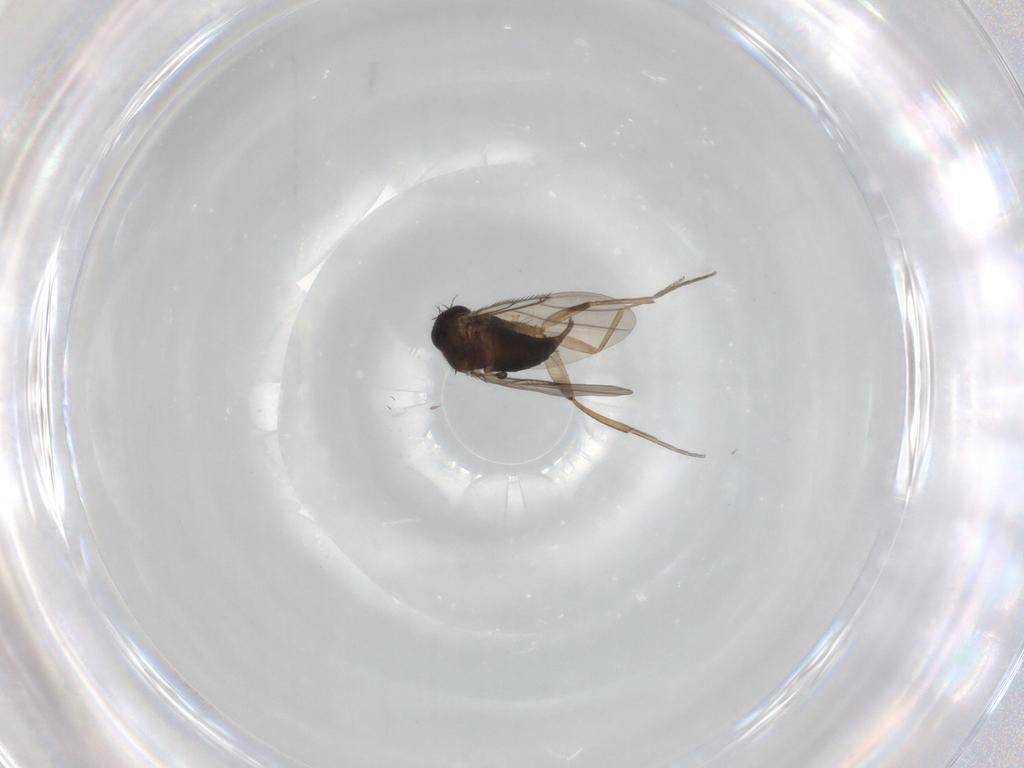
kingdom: Animalia
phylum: Arthropoda
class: Insecta
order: Diptera
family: Phoridae
